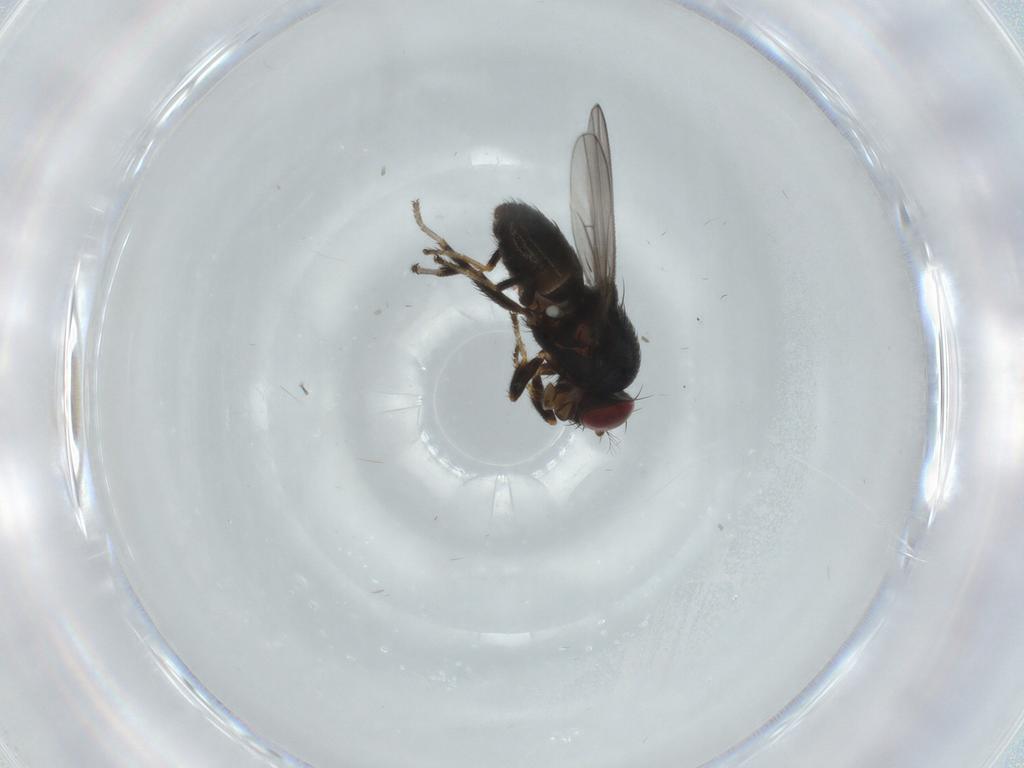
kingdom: Animalia
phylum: Arthropoda
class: Insecta
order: Diptera
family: Ephydridae
